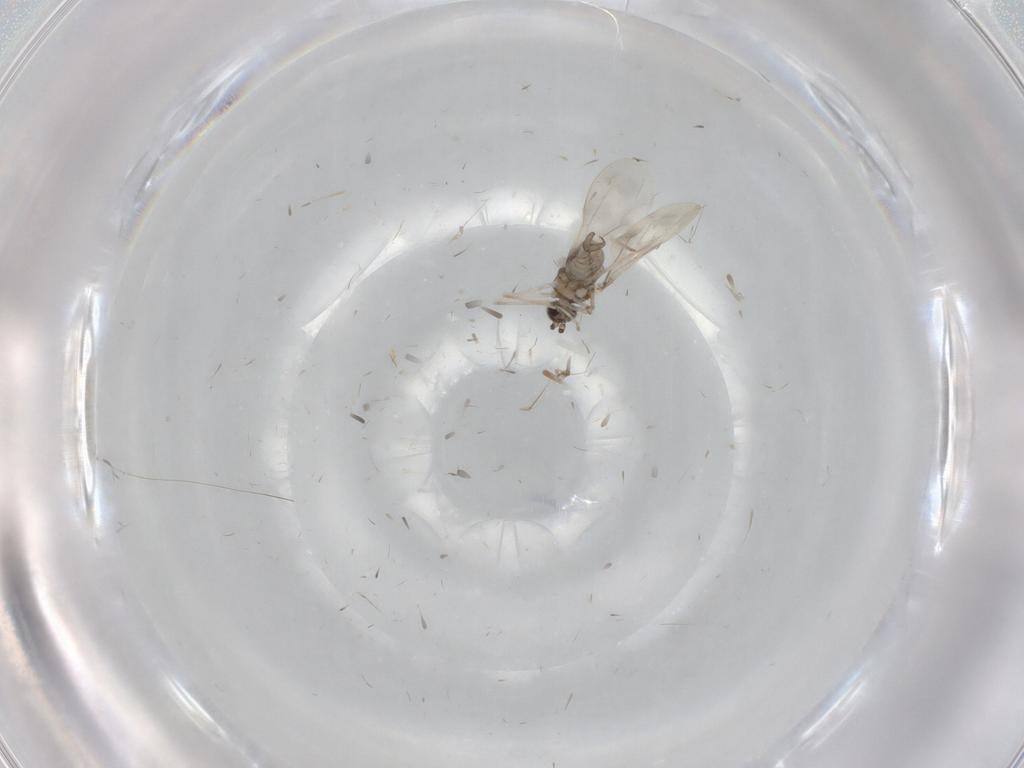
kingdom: Animalia
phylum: Arthropoda
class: Insecta
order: Diptera
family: Cecidomyiidae
